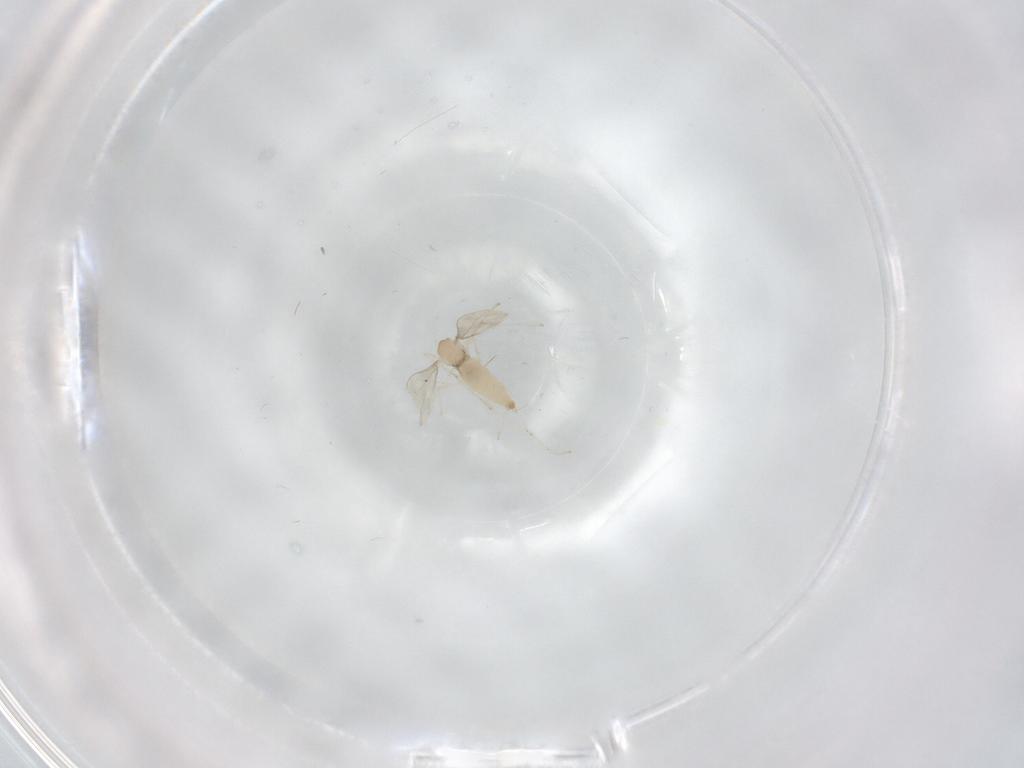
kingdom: Animalia
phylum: Arthropoda
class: Insecta
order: Diptera
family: Cecidomyiidae
